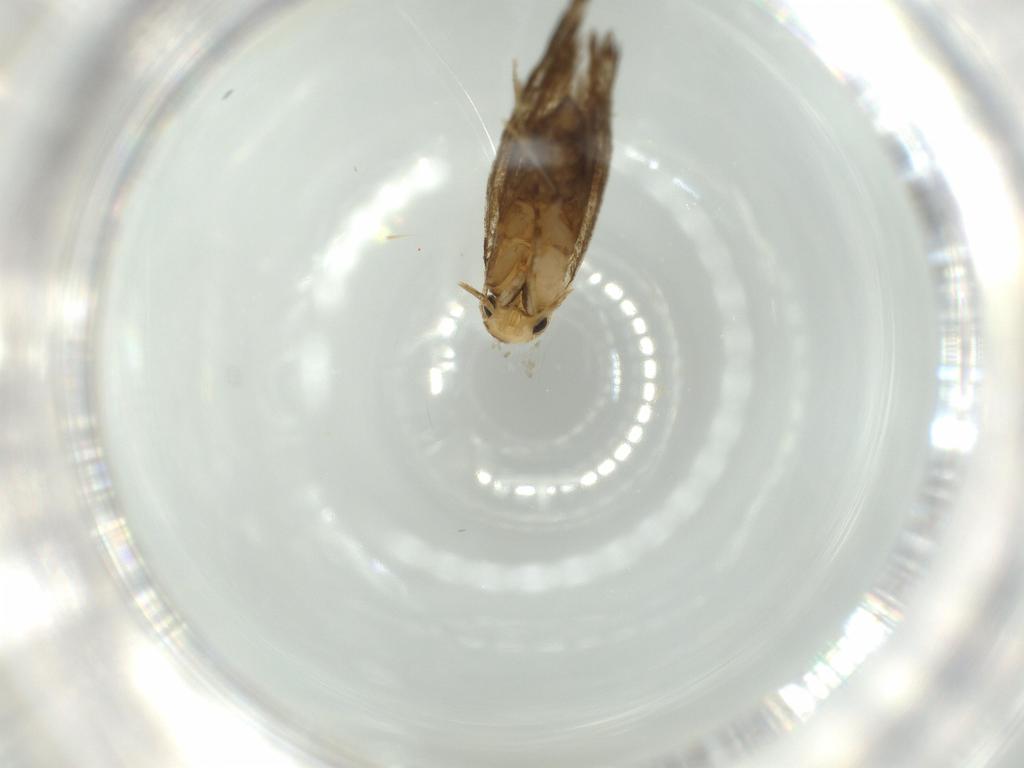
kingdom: Animalia
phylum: Arthropoda
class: Insecta
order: Lepidoptera
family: Tineidae
